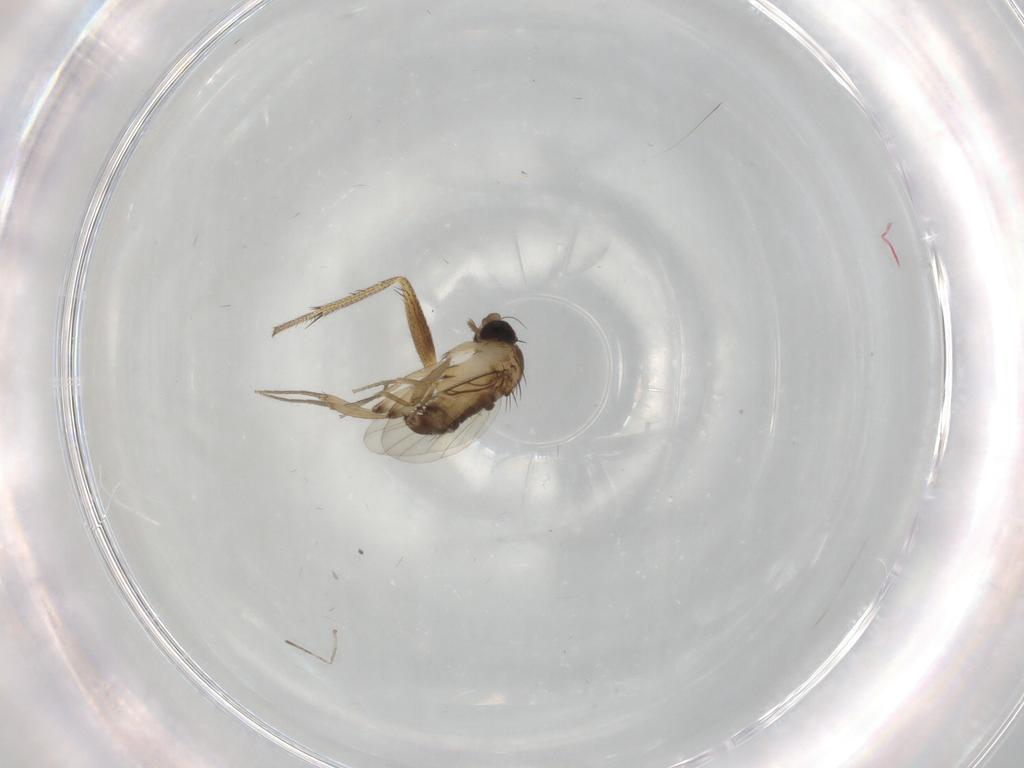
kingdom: Animalia
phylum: Arthropoda
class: Insecta
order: Diptera
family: Phoridae
